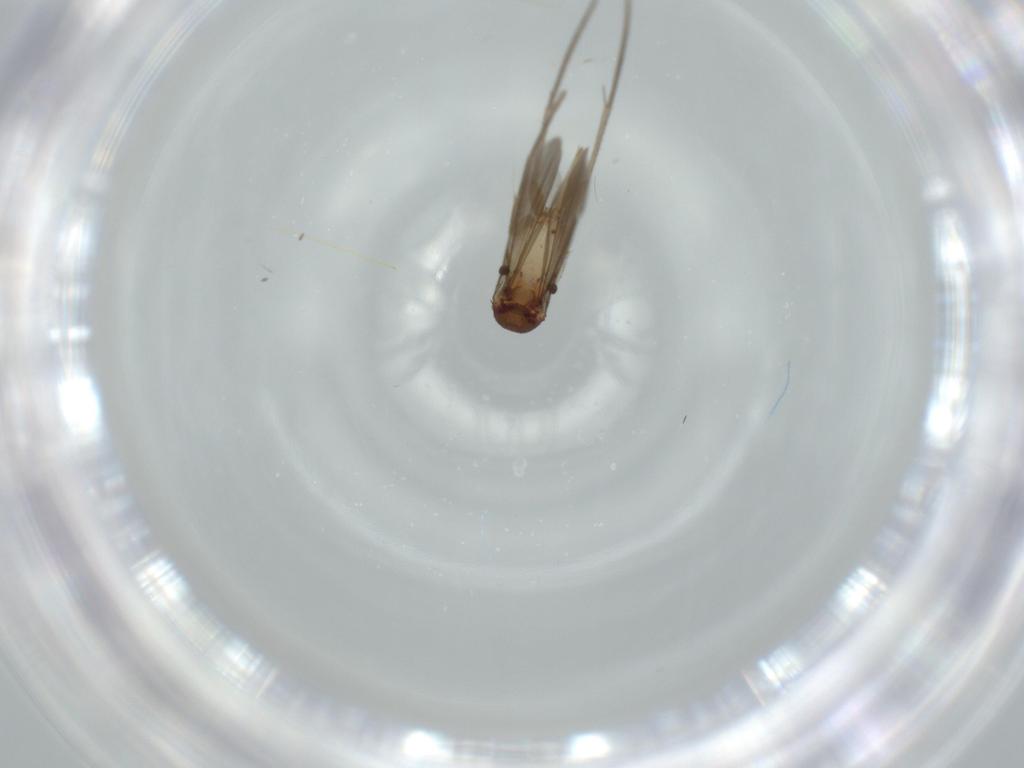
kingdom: Animalia
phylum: Arthropoda
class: Insecta
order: Diptera
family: Mycetophilidae
